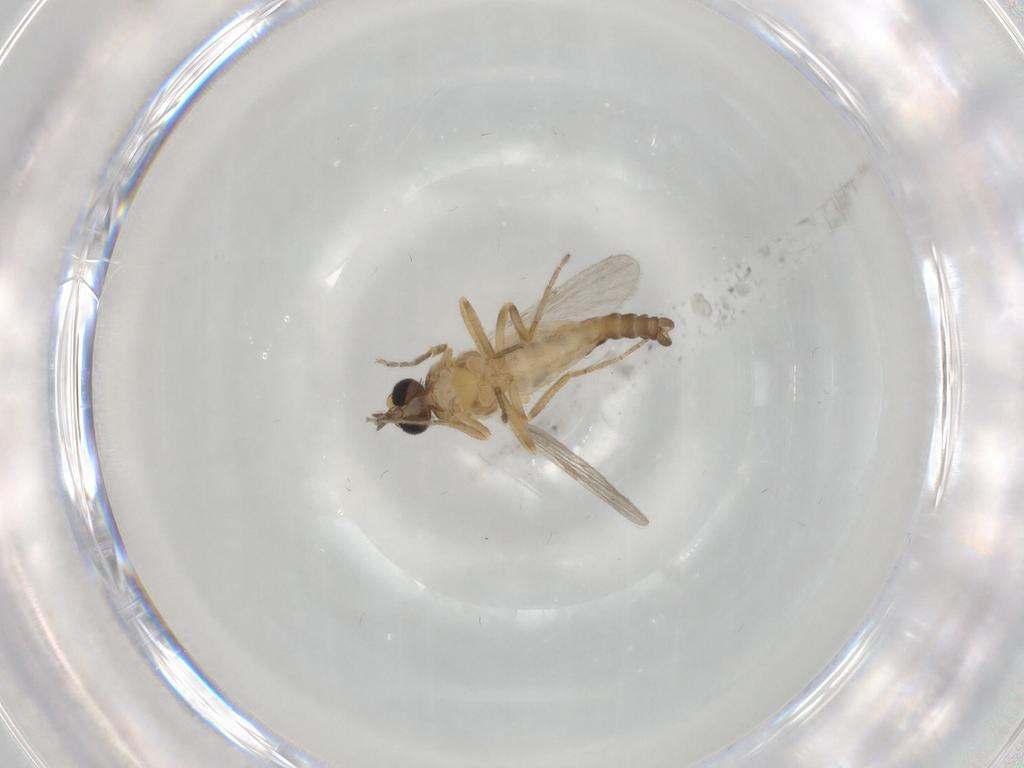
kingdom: Animalia
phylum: Arthropoda
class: Insecta
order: Diptera
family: Ceratopogonidae
